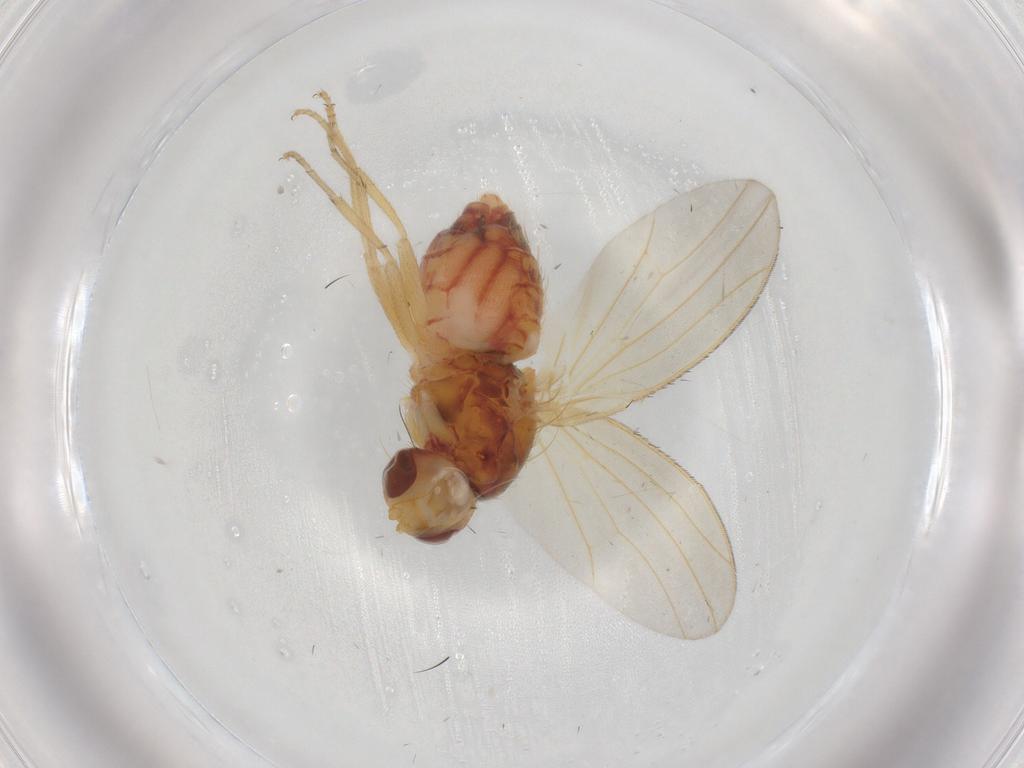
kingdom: Animalia
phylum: Arthropoda
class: Insecta
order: Diptera
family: Heleomyzidae
